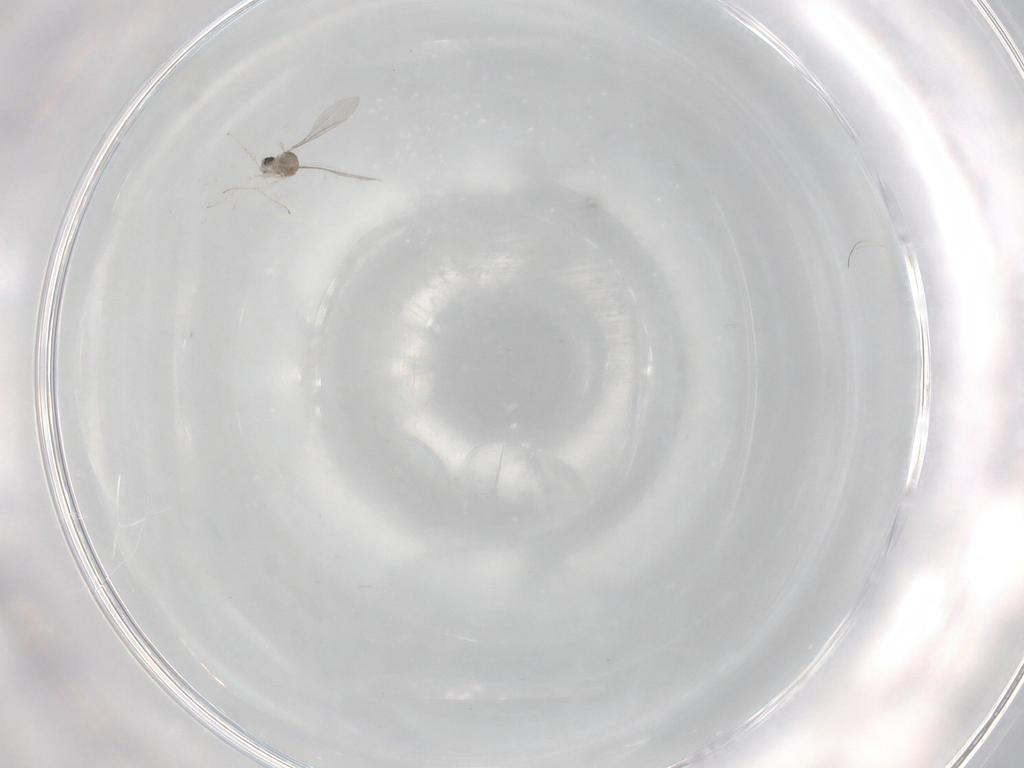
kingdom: Animalia
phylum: Arthropoda
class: Insecta
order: Diptera
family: Cecidomyiidae
